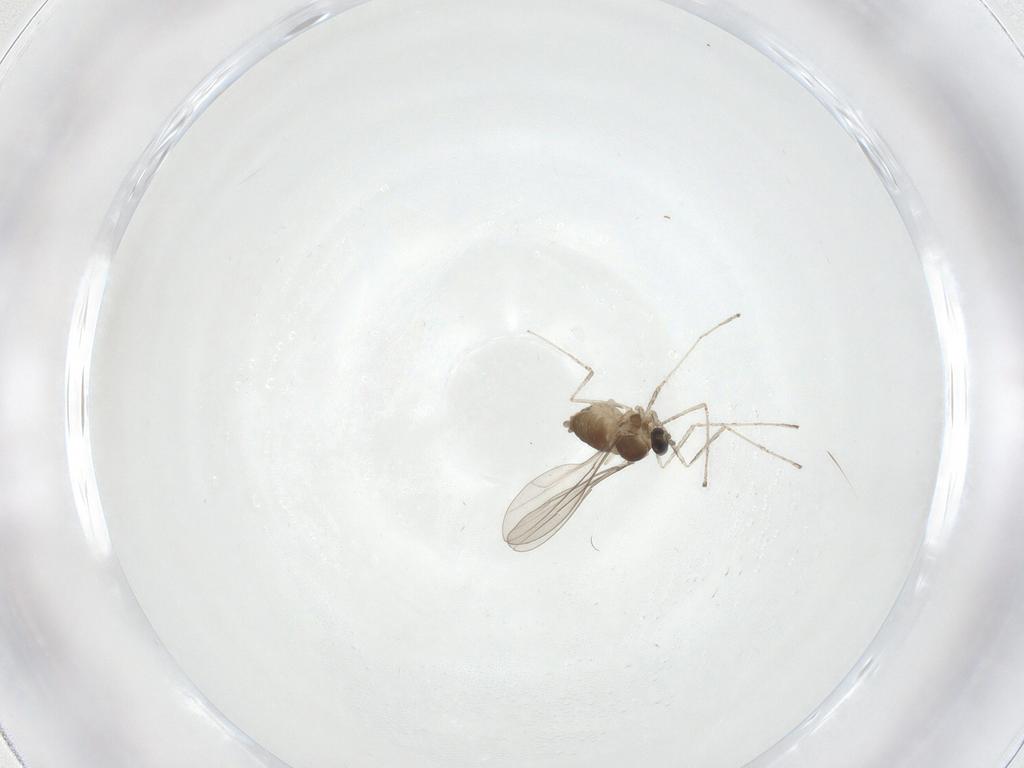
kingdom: Animalia
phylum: Arthropoda
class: Insecta
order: Diptera
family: Cecidomyiidae
